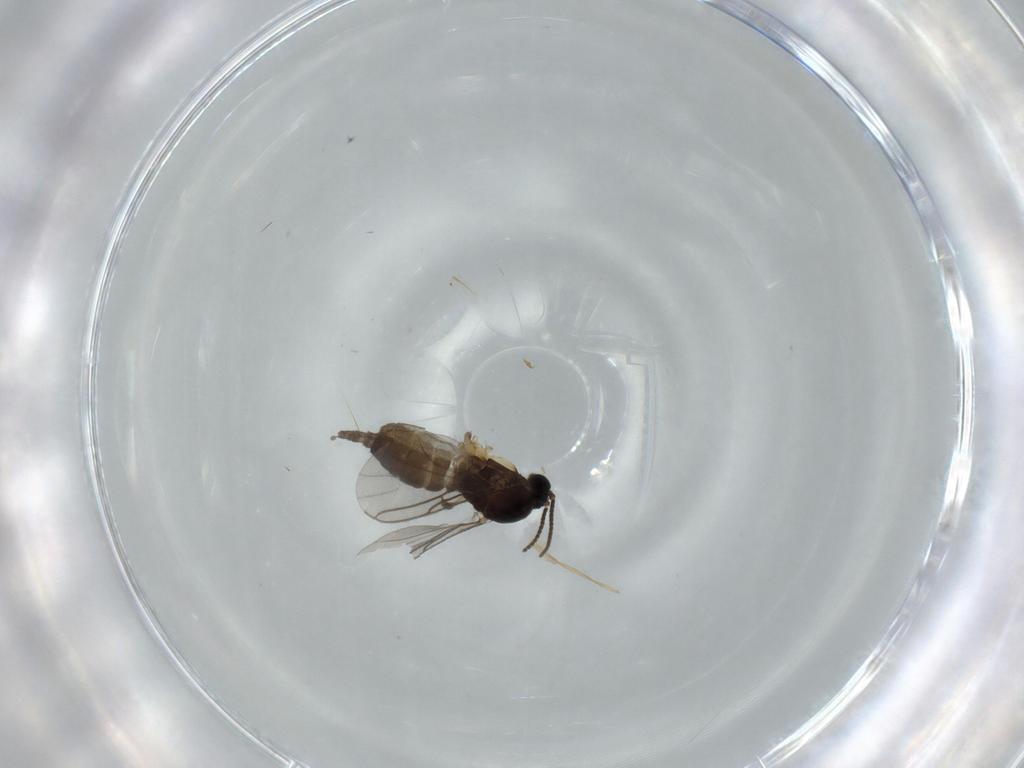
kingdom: Animalia
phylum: Arthropoda
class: Insecta
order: Diptera
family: Sciaridae
